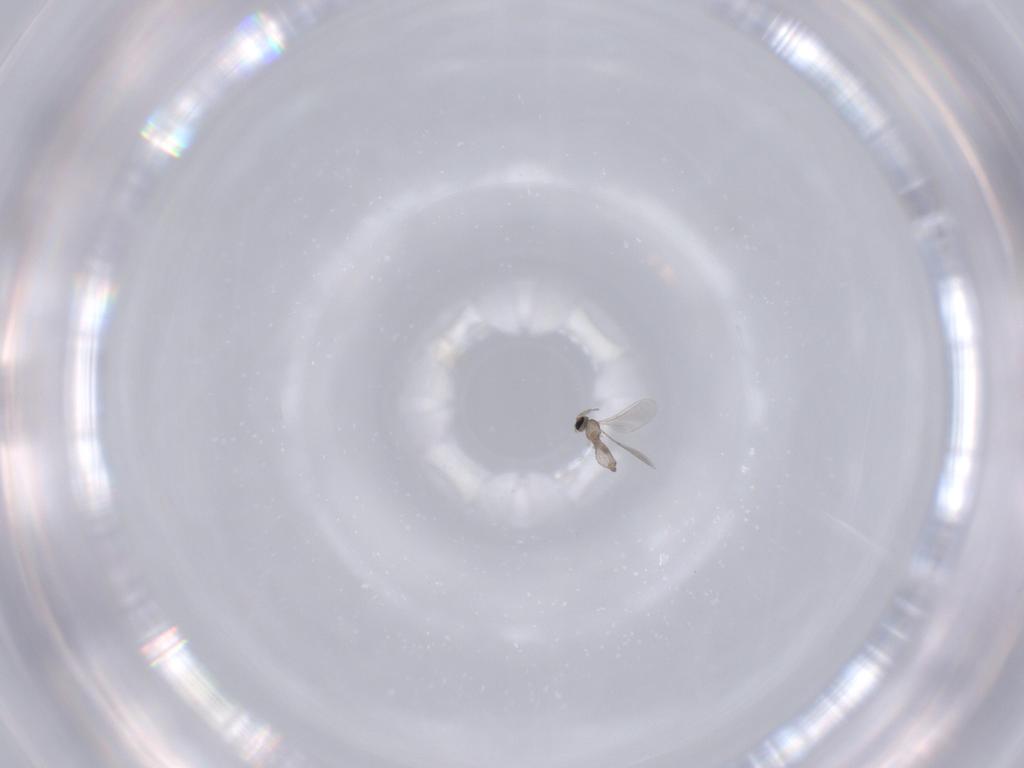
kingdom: Animalia
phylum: Arthropoda
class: Insecta
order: Diptera
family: Cecidomyiidae
